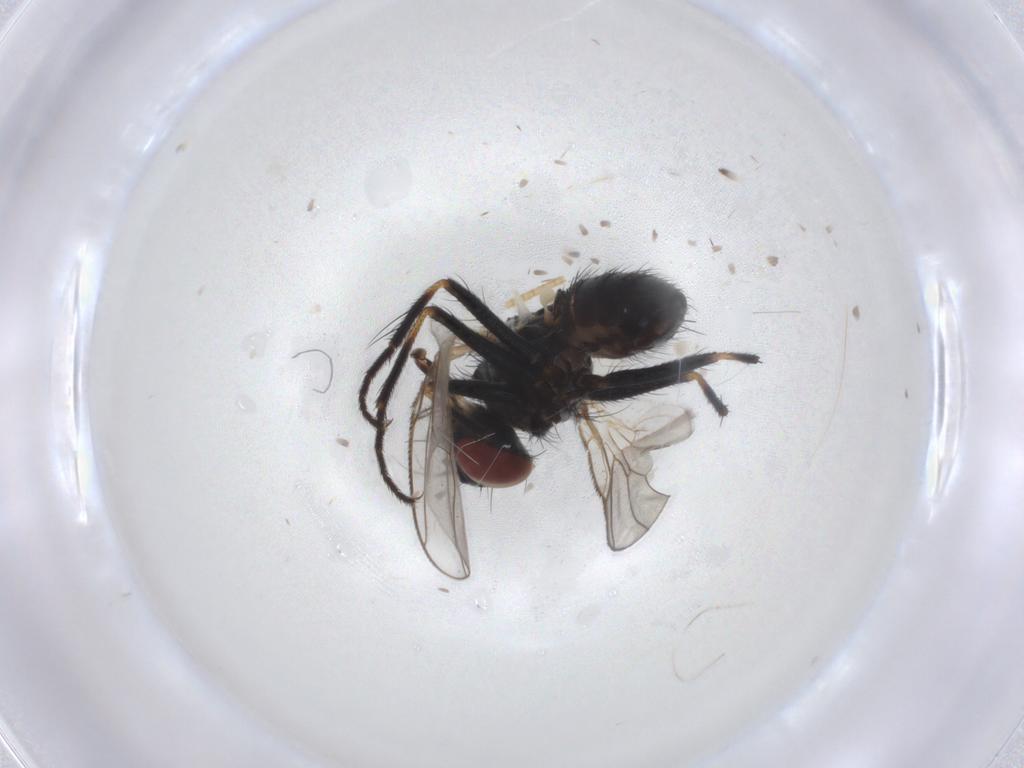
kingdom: Animalia
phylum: Arthropoda
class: Insecta
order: Diptera
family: Muscidae
